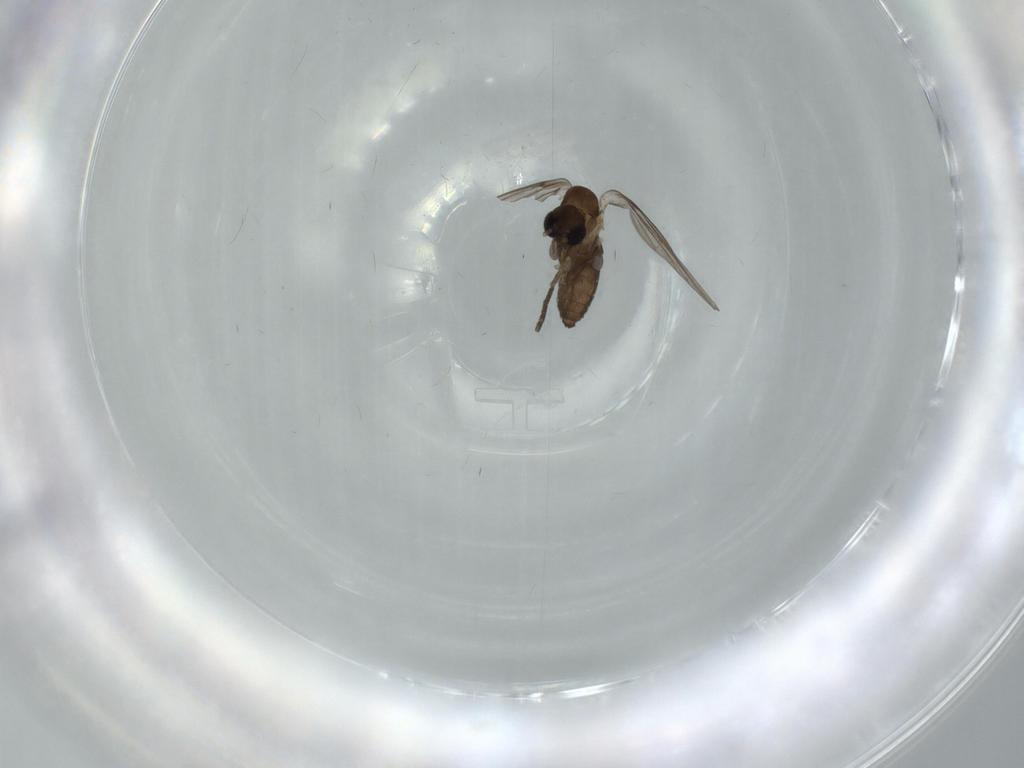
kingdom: Animalia
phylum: Arthropoda
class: Insecta
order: Diptera
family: Psychodidae
